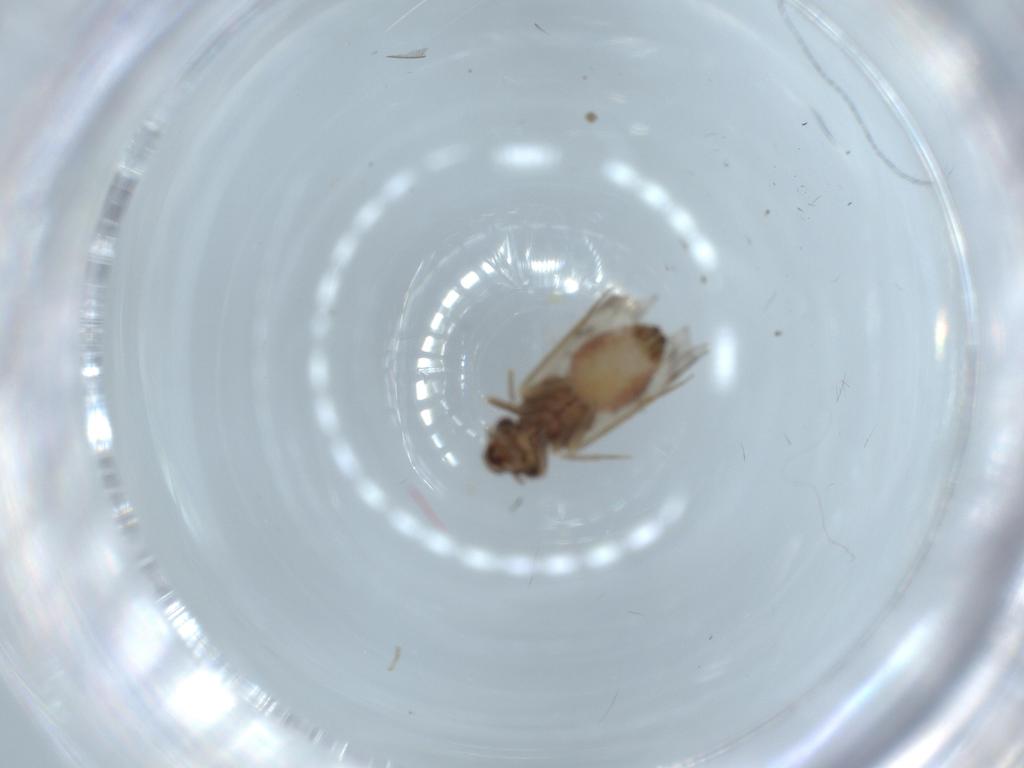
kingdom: Animalia
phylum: Arthropoda
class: Insecta
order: Psocodea
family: Lepidopsocidae
